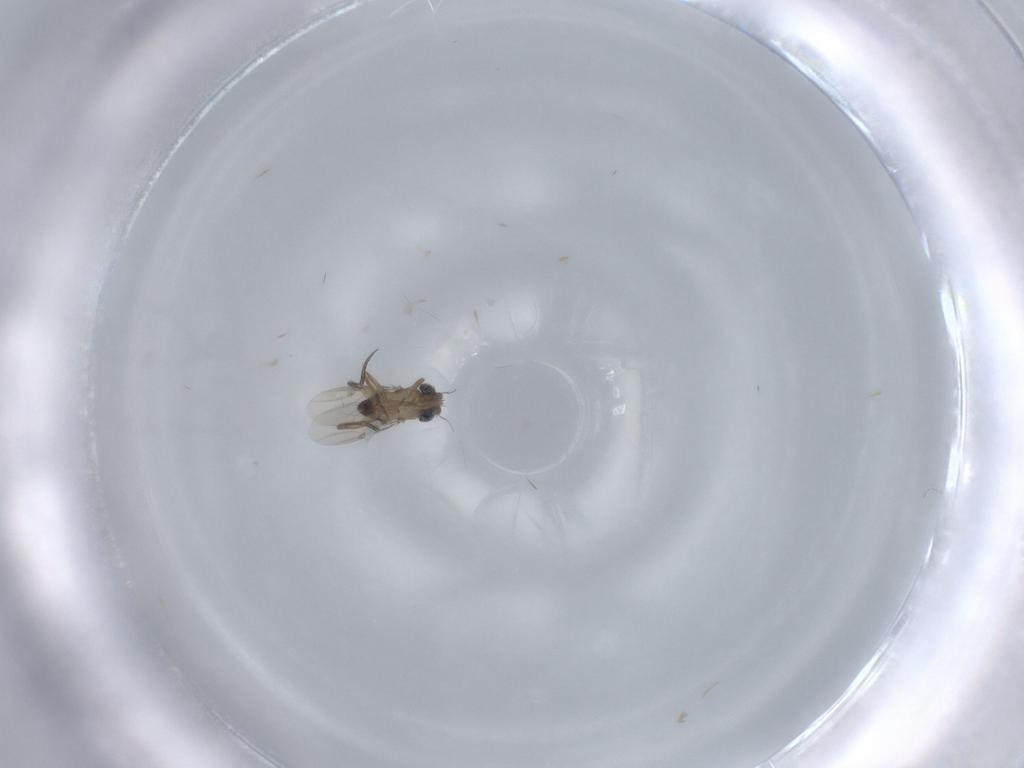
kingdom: Animalia
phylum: Arthropoda
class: Insecta
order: Diptera
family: Phoridae
